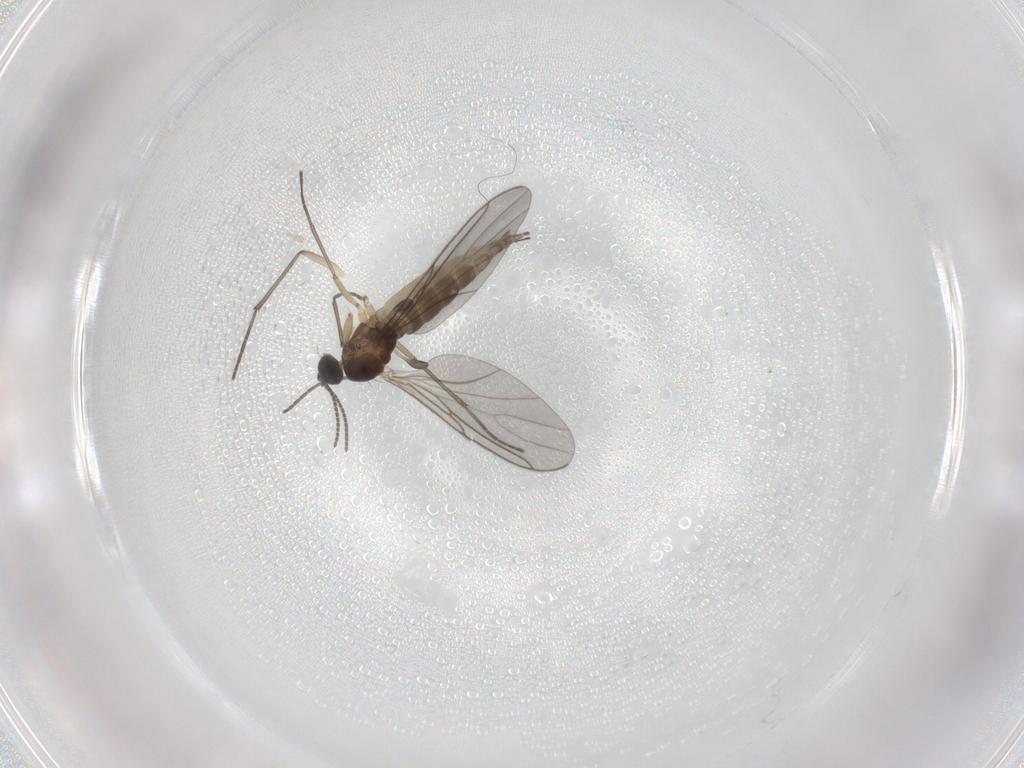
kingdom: Animalia
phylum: Arthropoda
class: Insecta
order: Diptera
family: Sciaridae
